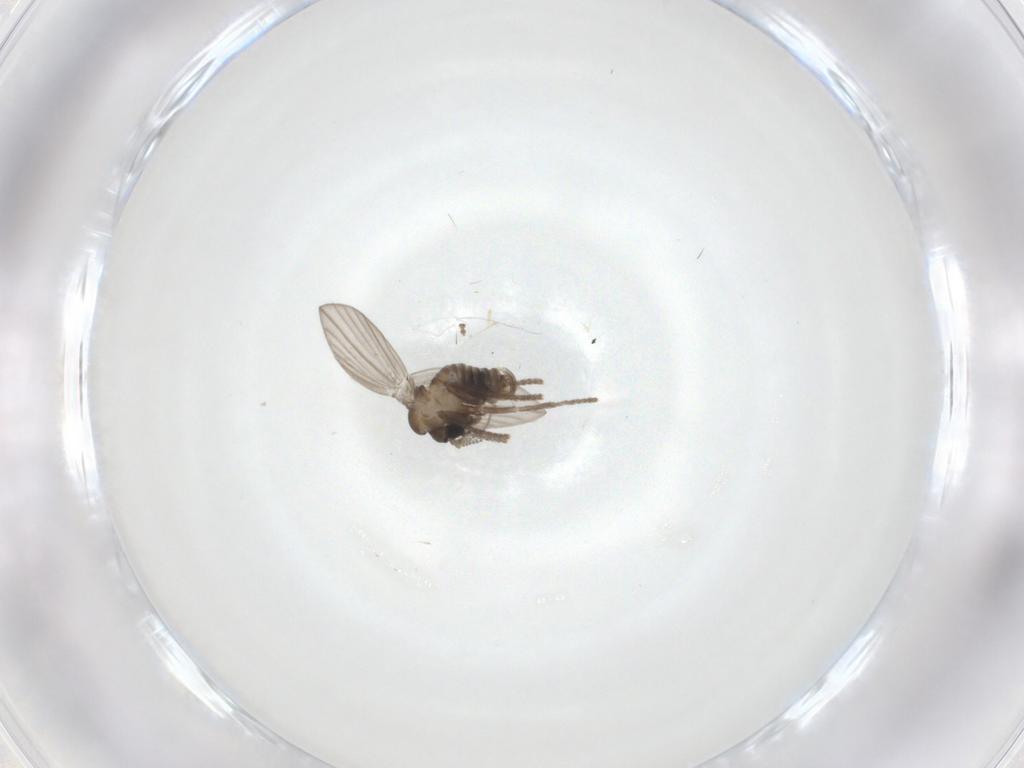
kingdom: Animalia
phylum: Arthropoda
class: Insecta
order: Diptera
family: Psychodidae
